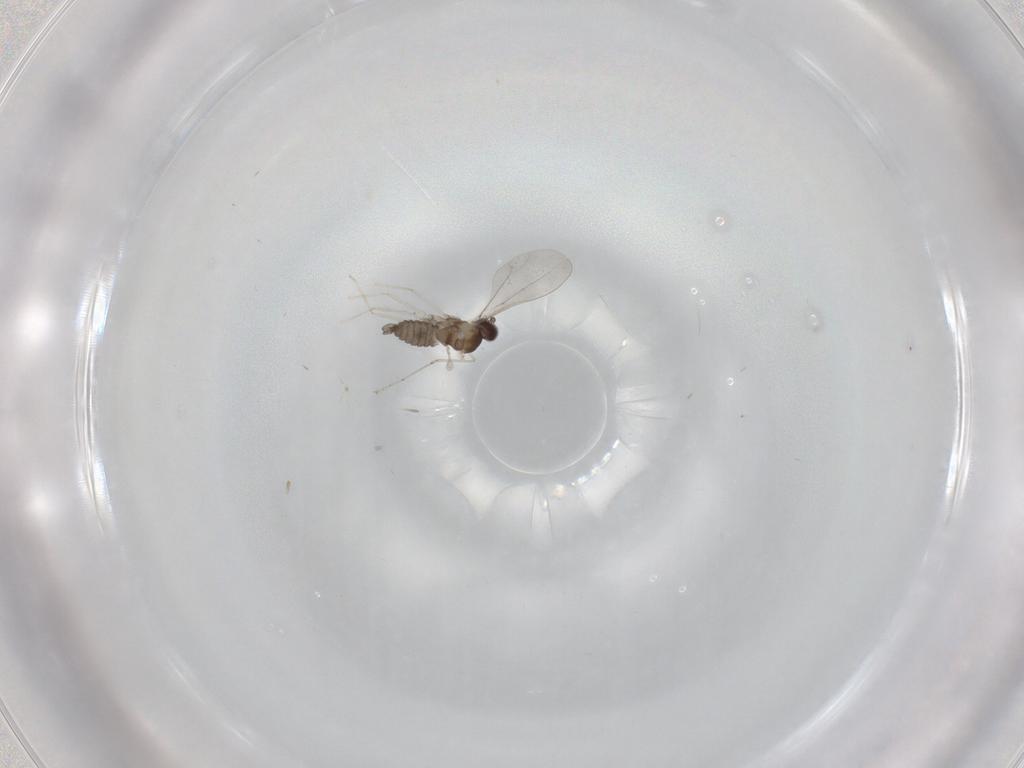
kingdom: Animalia
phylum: Arthropoda
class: Insecta
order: Diptera
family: Cecidomyiidae
